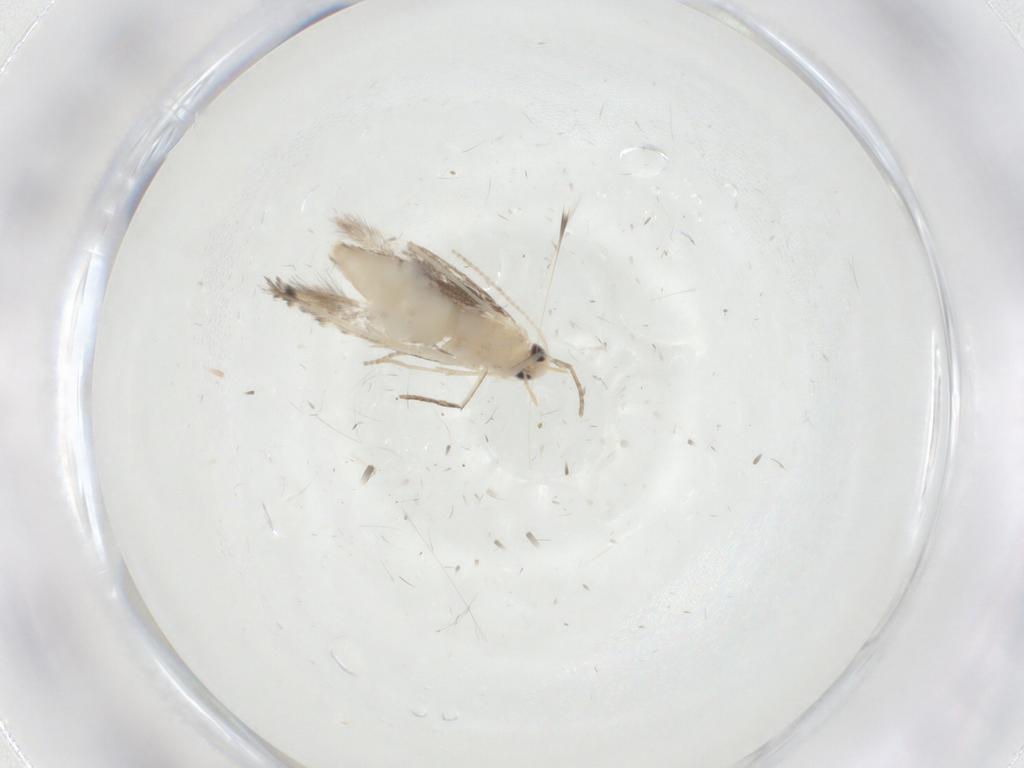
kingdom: Animalia
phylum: Arthropoda
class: Insecta
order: Lepidoptera
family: Nepticulidae
